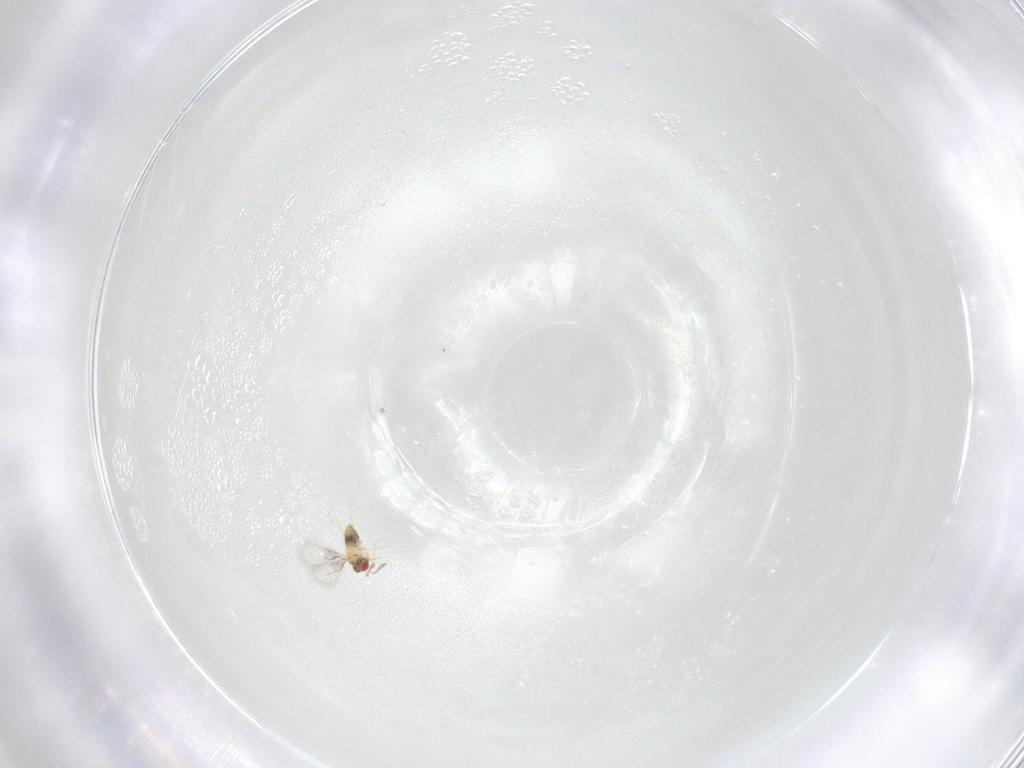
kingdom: Animalia
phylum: Arthropoda
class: Insecta
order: Hymenoptera
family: Trichogrammatidae
